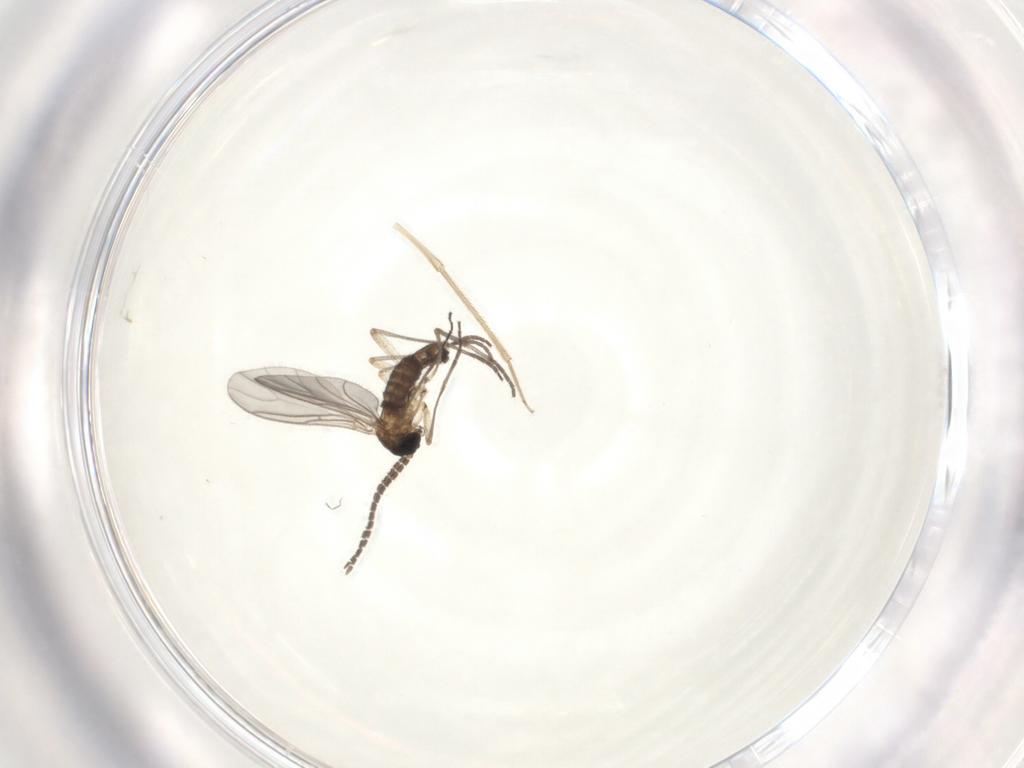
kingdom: Animalia
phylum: Arthropoda
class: Insecta
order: Diptera
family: Sciaridae
